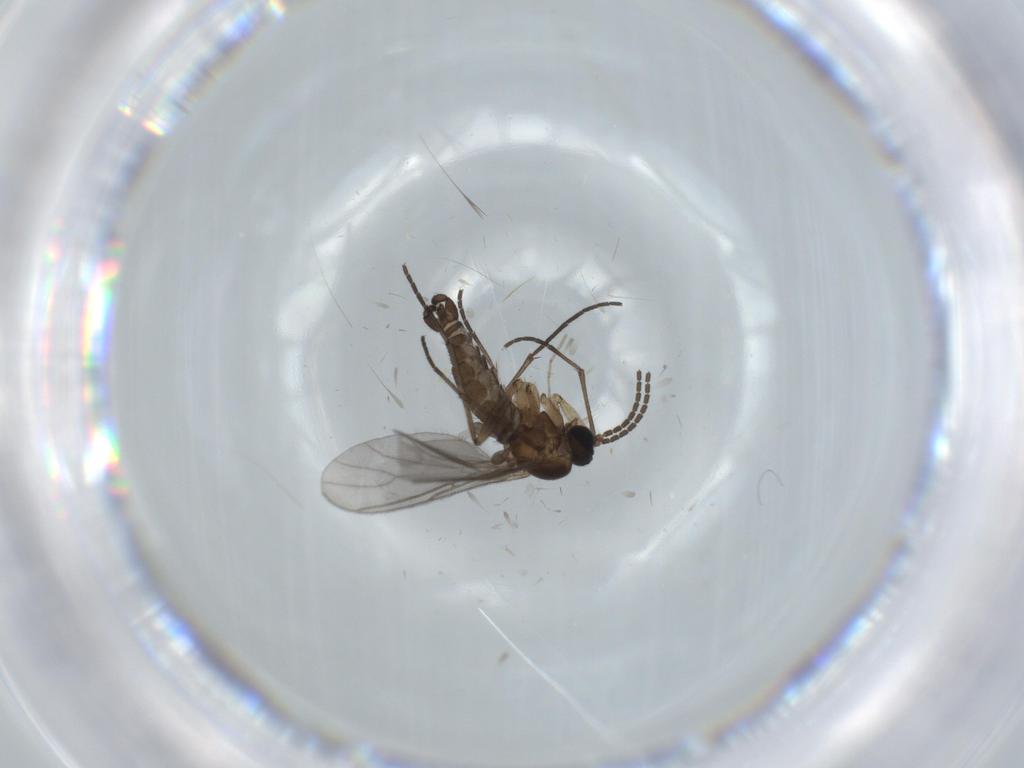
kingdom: Animalia
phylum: Arthropoda
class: Insecta
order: Diptera
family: Sciaridae
